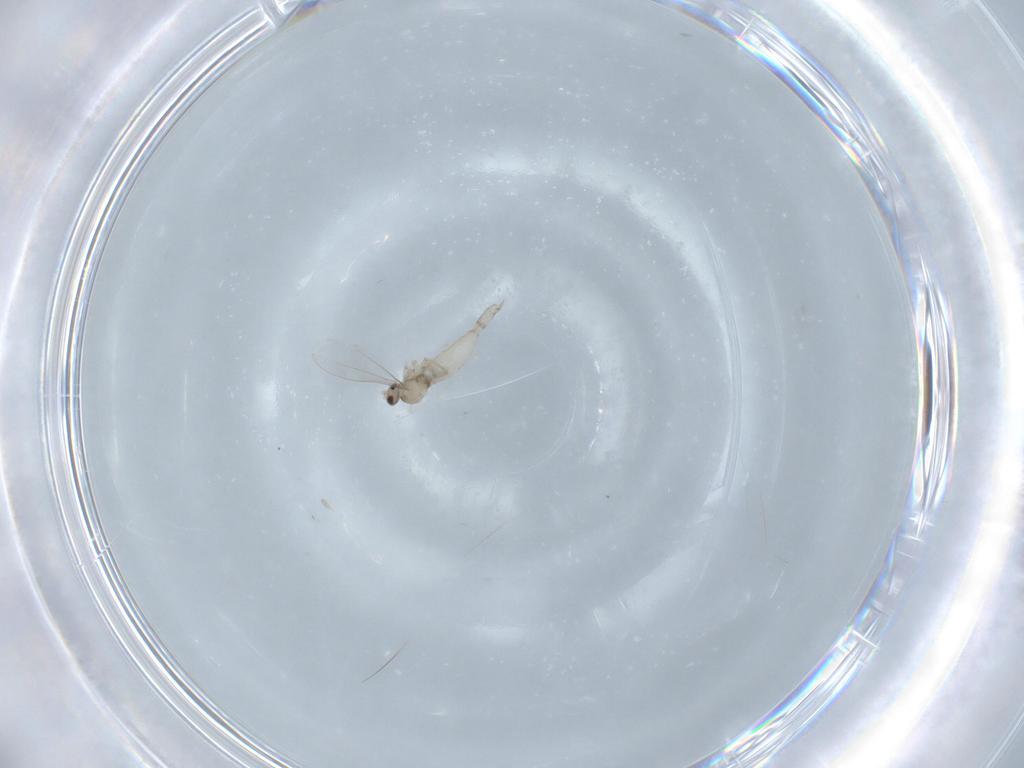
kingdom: Animalia
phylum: Arthropoda
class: Insecta
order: Diptera
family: Cecidomyiidae
